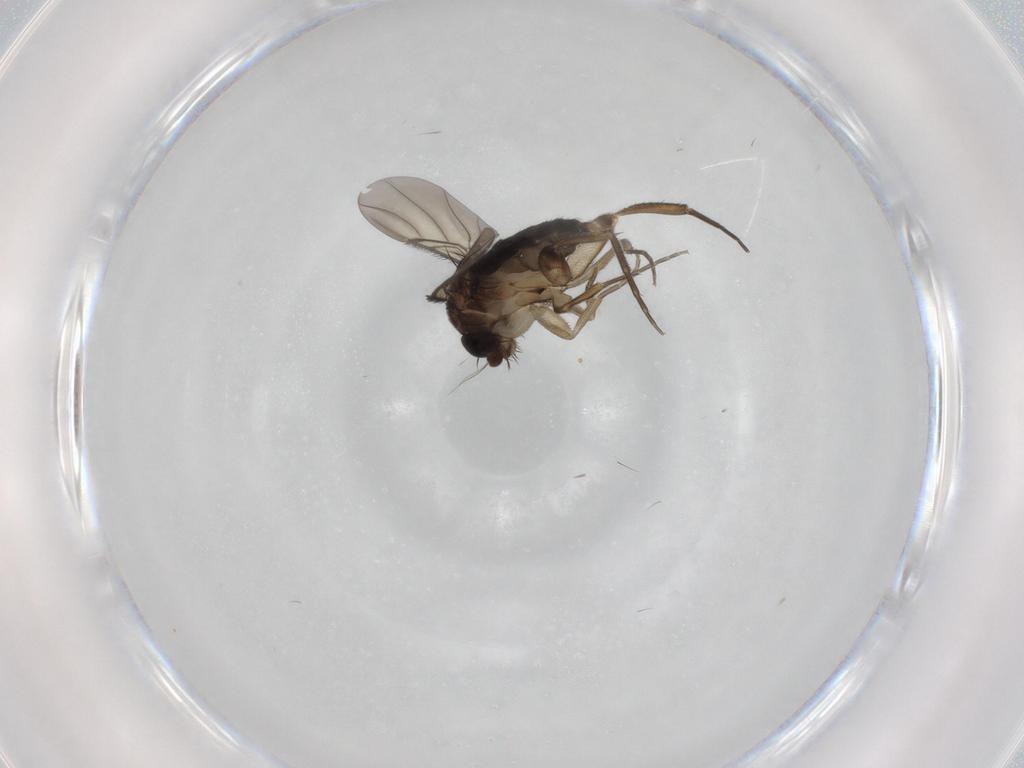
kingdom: Animalia
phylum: Arthropoda
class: Insecta
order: Diptera
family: Phoridae
